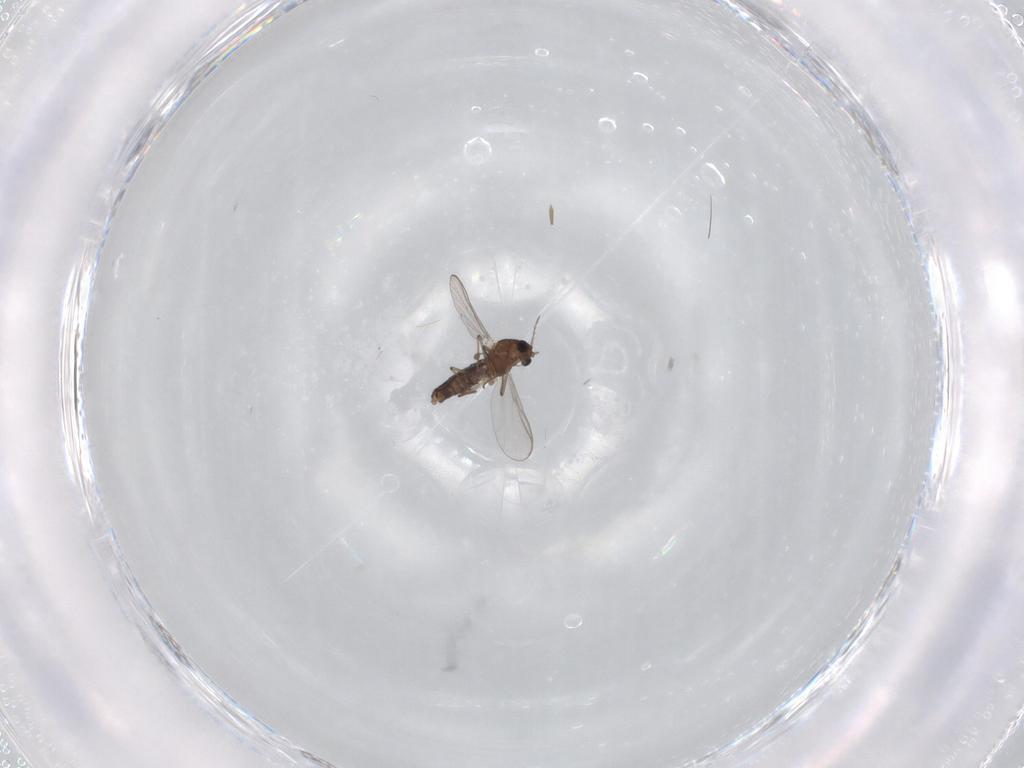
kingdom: Animalia
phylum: Arthropoda
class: Insecta
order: Diptera
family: Chironomidae
